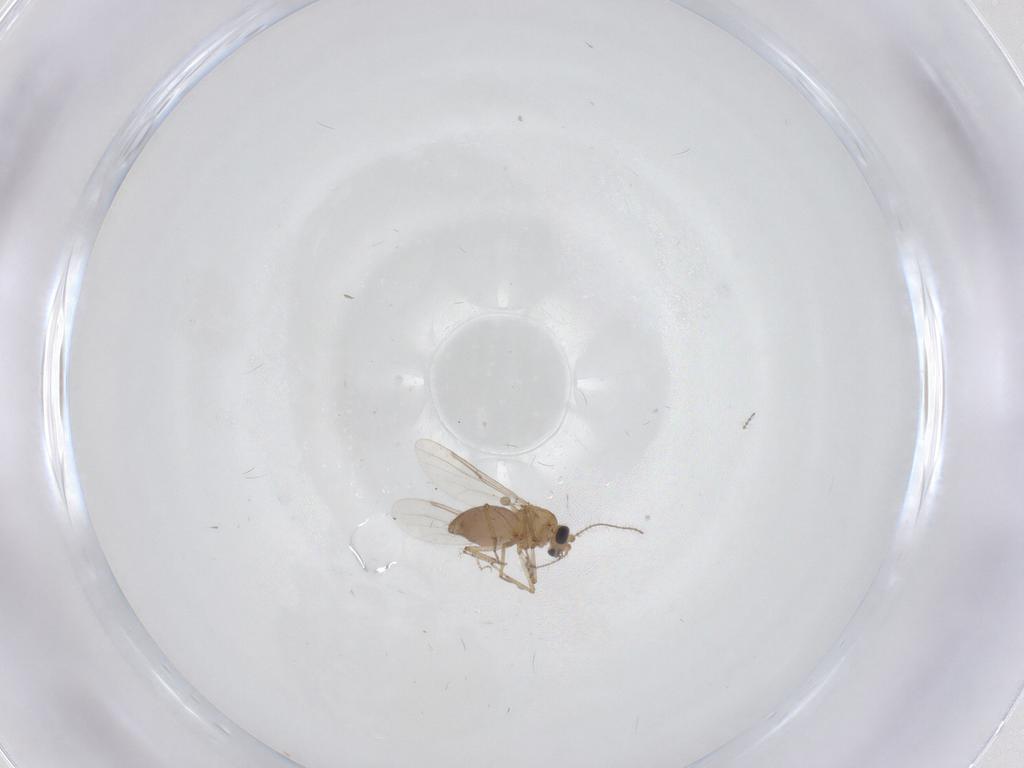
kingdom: Animalia
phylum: Arthropoda
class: Insecta
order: Diptera
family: Ceratopogonidae
